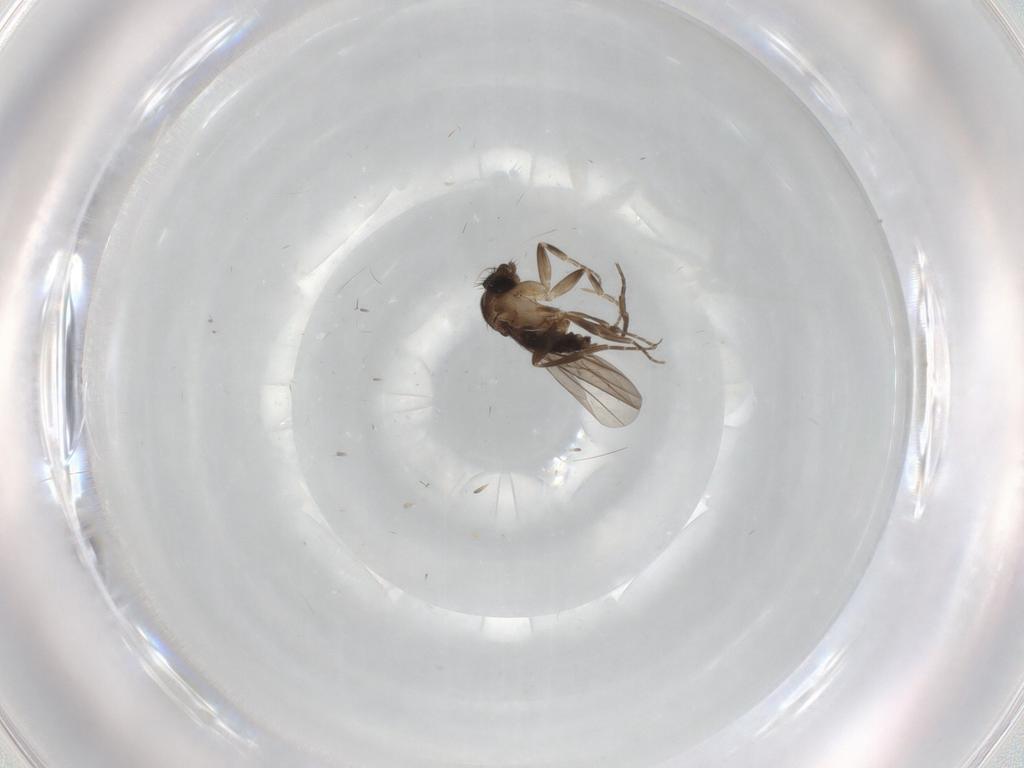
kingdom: Animalia
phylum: Arthropoda
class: Insecta
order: Diptera
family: Phoridae
